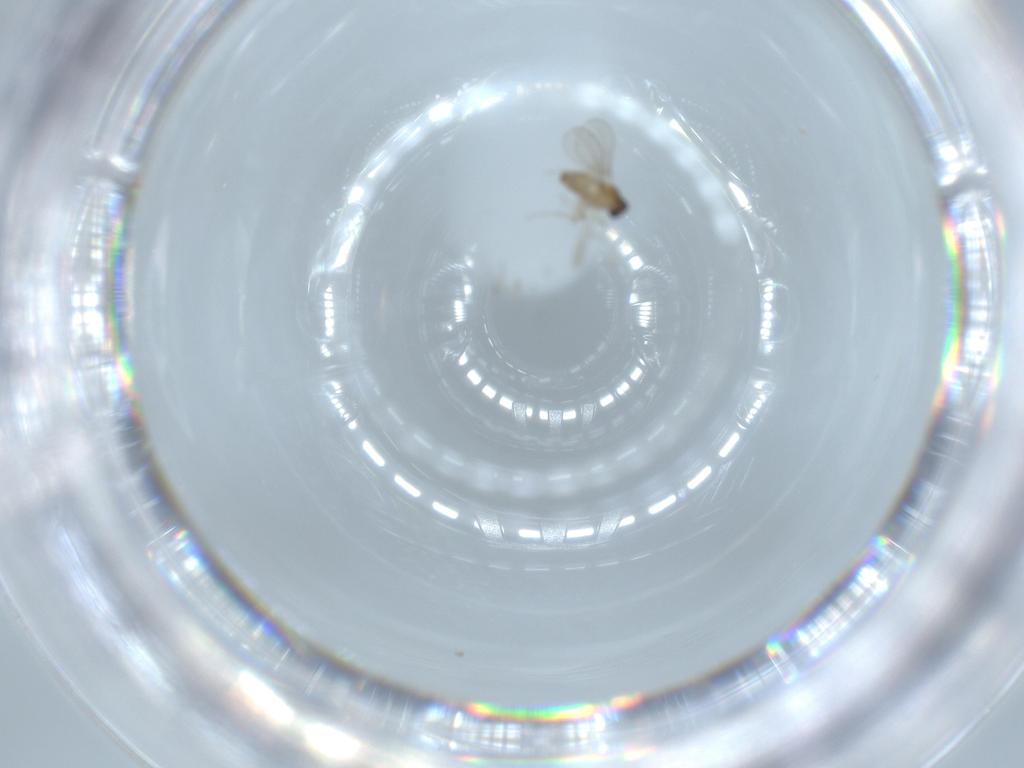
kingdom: Animalia
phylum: Arthropoda
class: Insecta
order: Diptera
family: Cecidomyiidae
